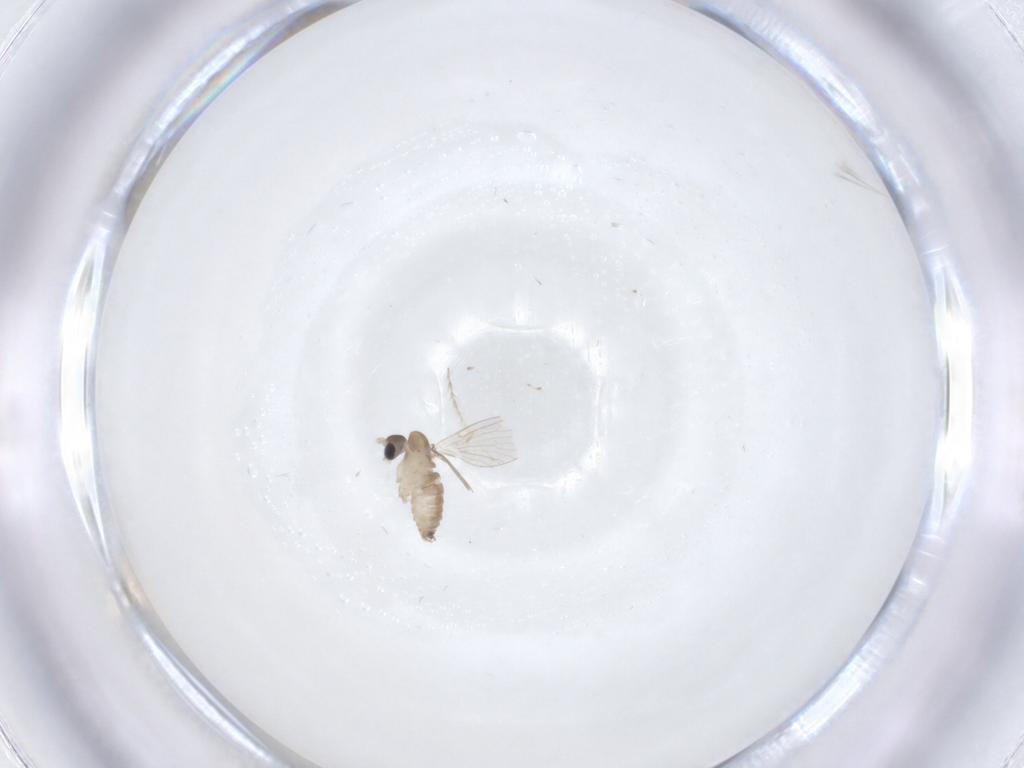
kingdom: Animalia
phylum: Arthropoda
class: Insecta
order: Diptera
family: Psychodidae
